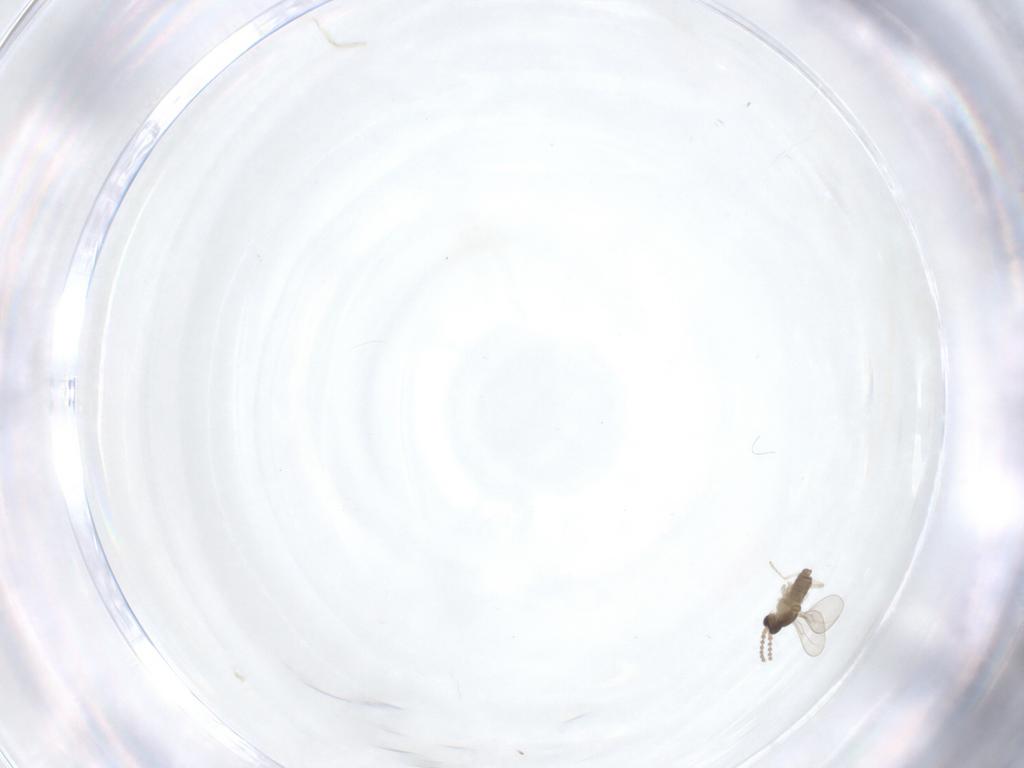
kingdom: Animalia
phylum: Arthropoda
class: Insecta
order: Diptera
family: Cecidomyiidae
